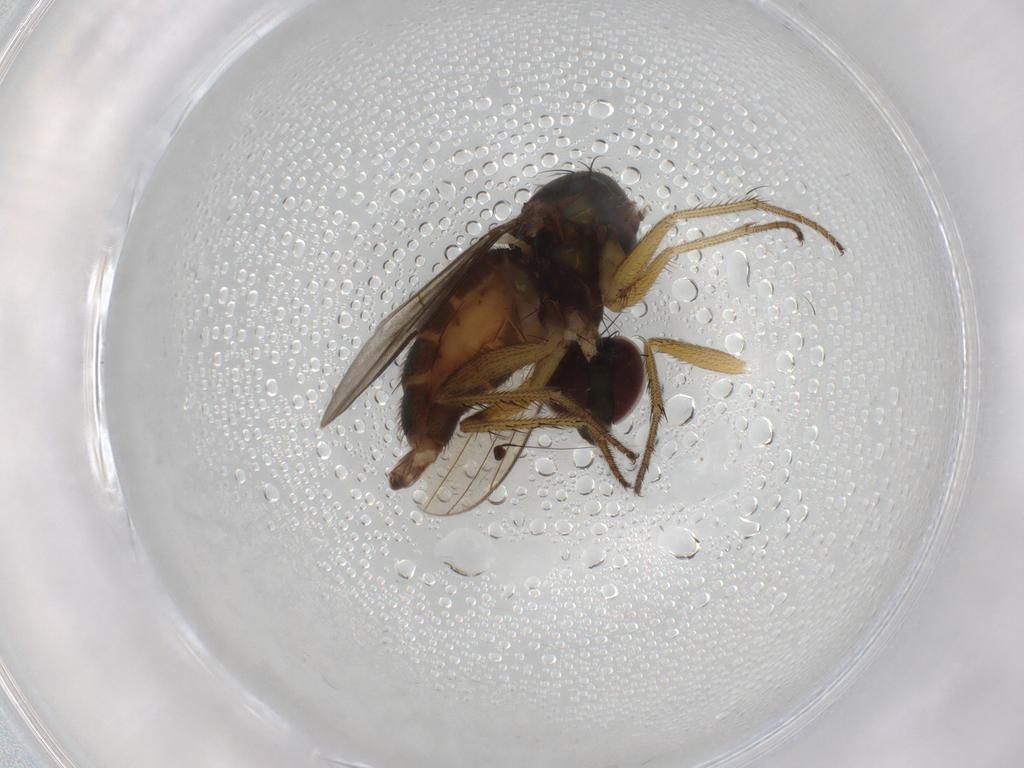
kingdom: Animalia
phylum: Arthropoda
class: Insecta
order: Diptera
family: Dolichopodidae
